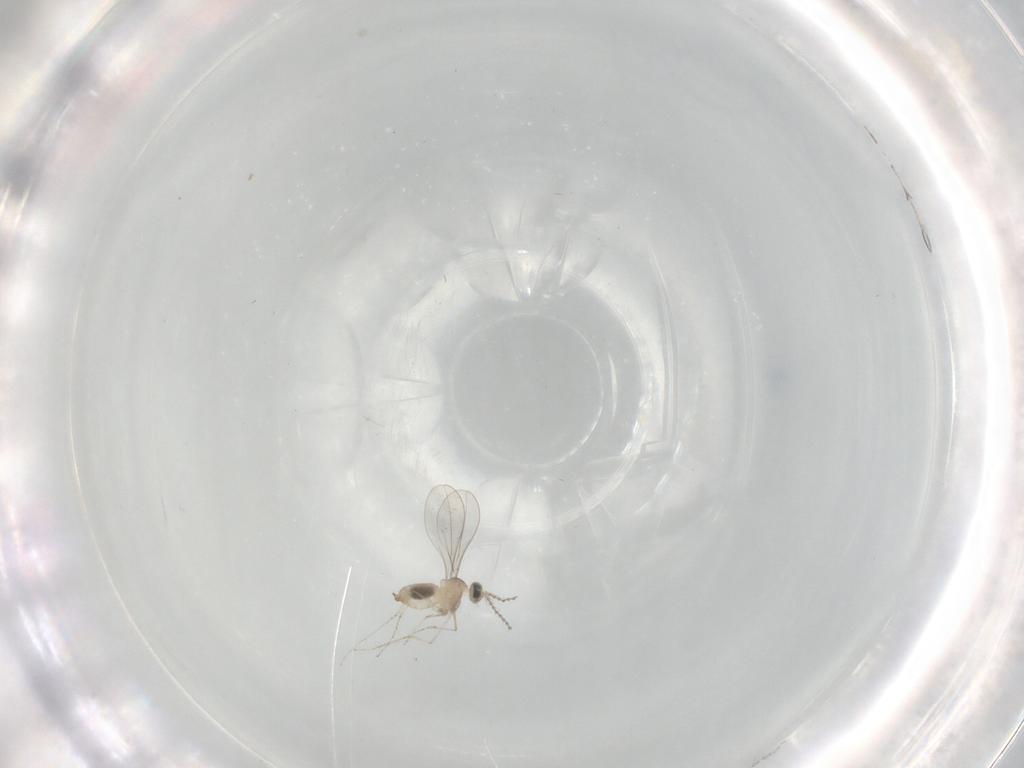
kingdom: Animalia
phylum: Arthropoda
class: Insecta
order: Diptera
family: Cecidomyiidae
